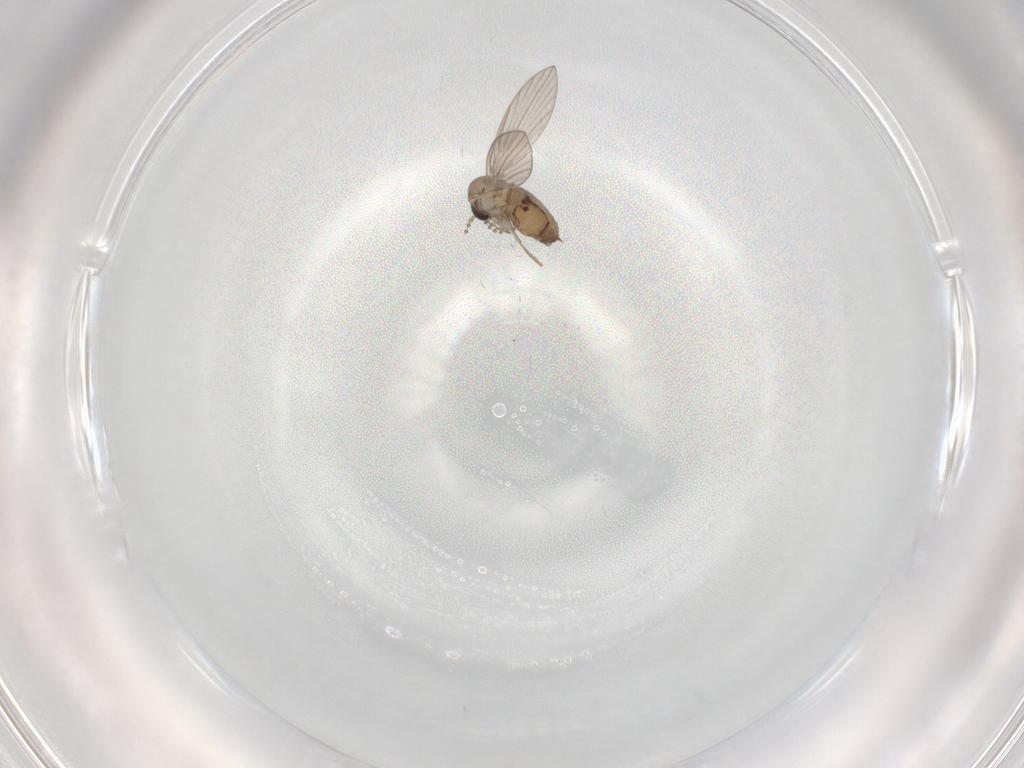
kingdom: Animalia
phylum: Arthropoda
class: Insecta
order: Diptera
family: Psychodidae
